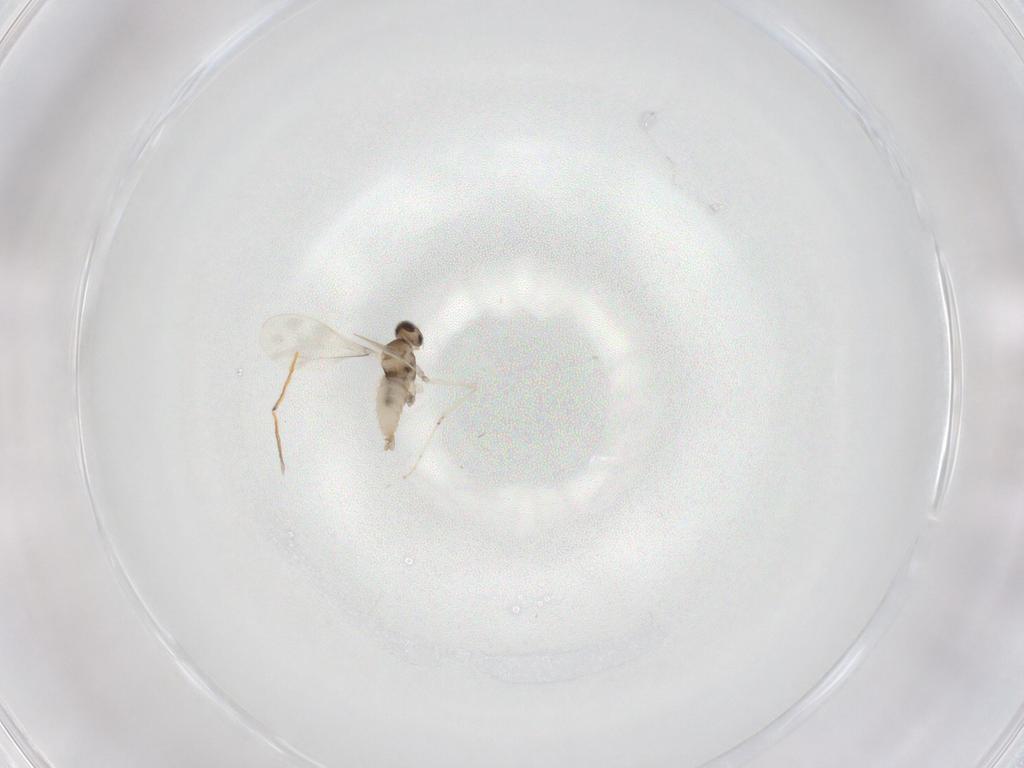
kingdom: Animalia
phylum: Arthropoda
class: Insecta
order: Diptera
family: Cecidomyiidae
